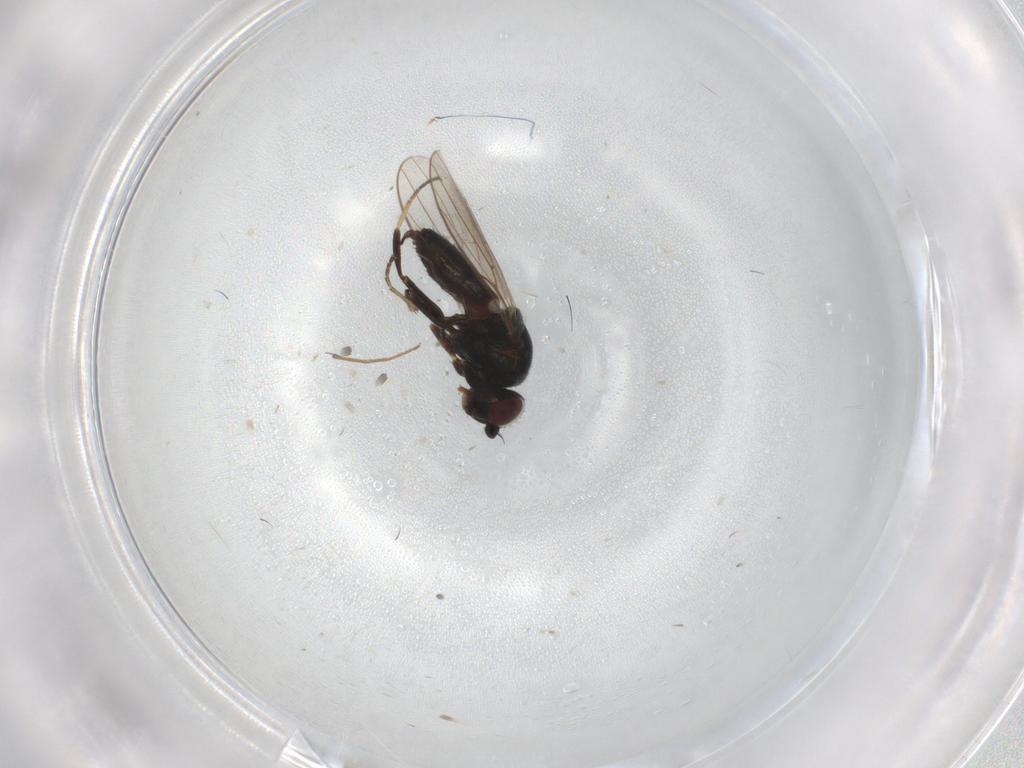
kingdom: Animalia
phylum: Arthropoda
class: Insecta
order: Diptera
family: Chloropidae
